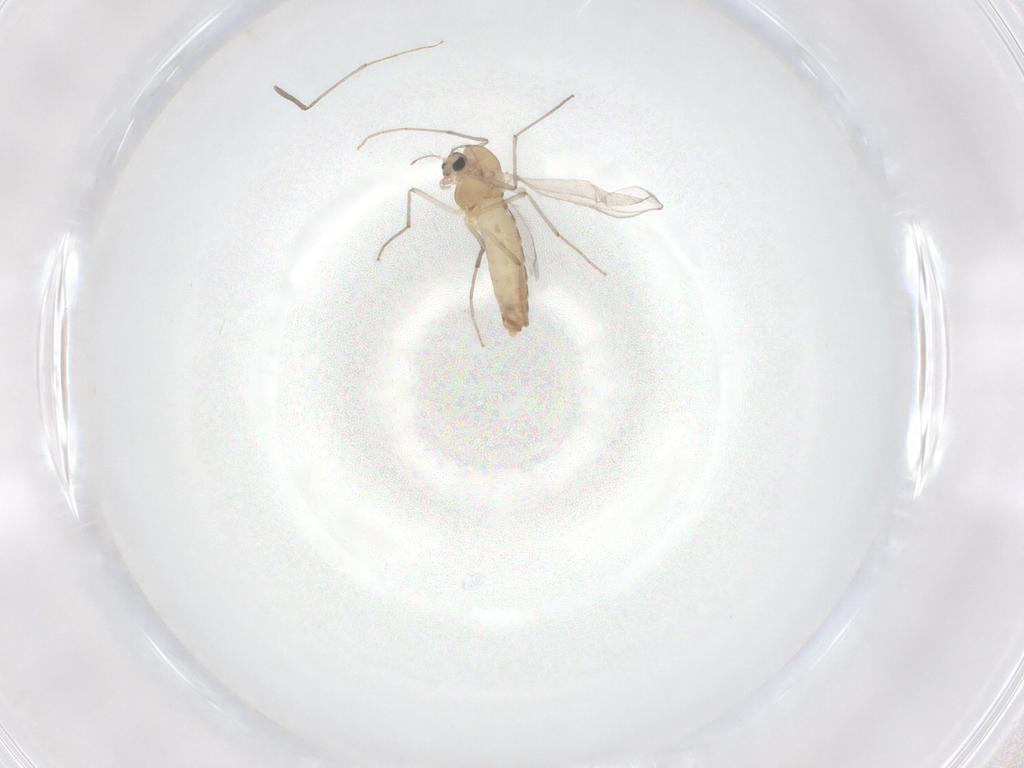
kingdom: Animalia
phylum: Arthropoda
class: Insecta
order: Diptera
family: Chironomidae
